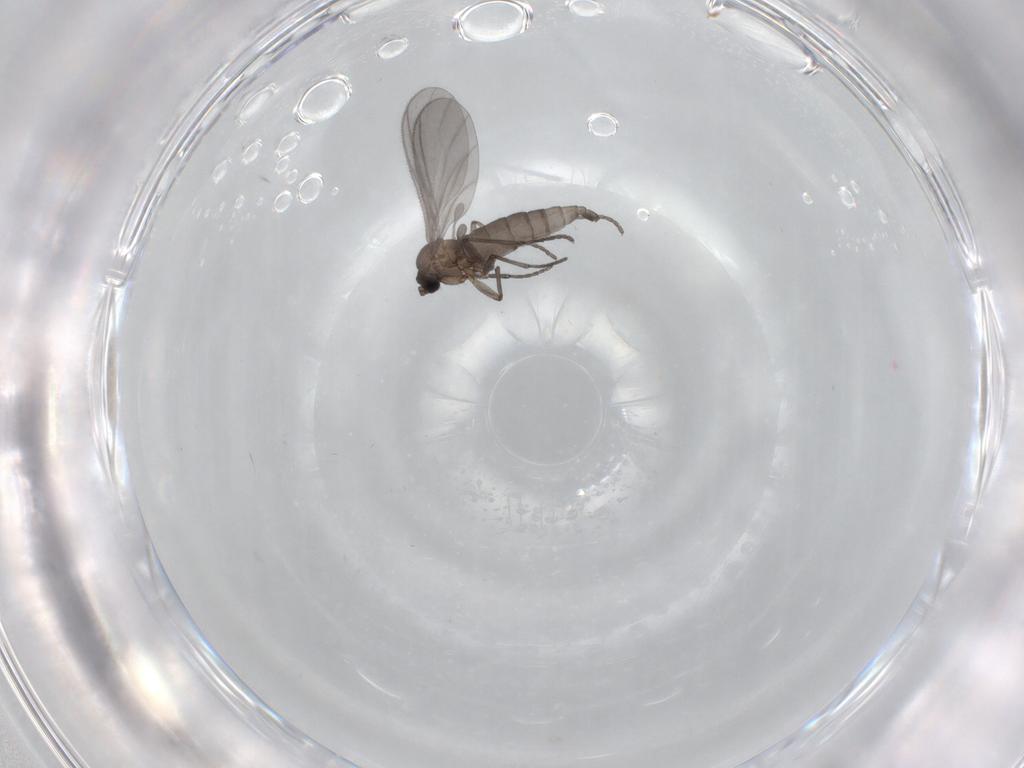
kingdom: Animalia
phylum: Arthropoda
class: Insecta
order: Diptera
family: Sciaridae
